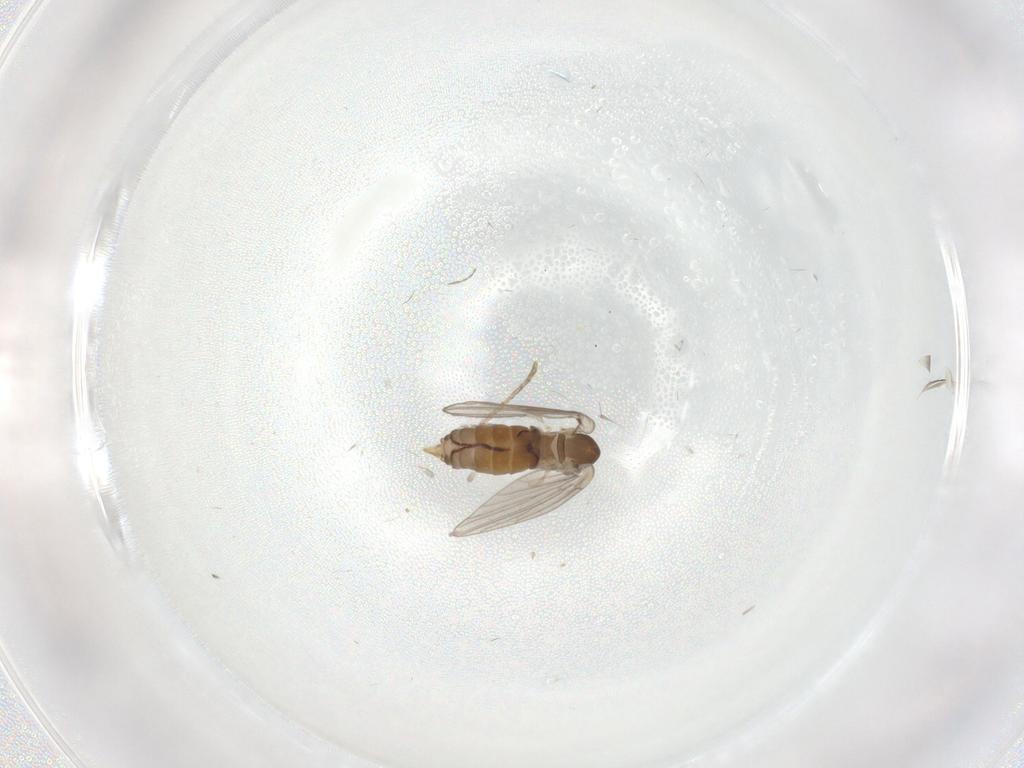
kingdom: Animalia
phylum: Arthropoda
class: Insecta
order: Diptera
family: Chironomidae
